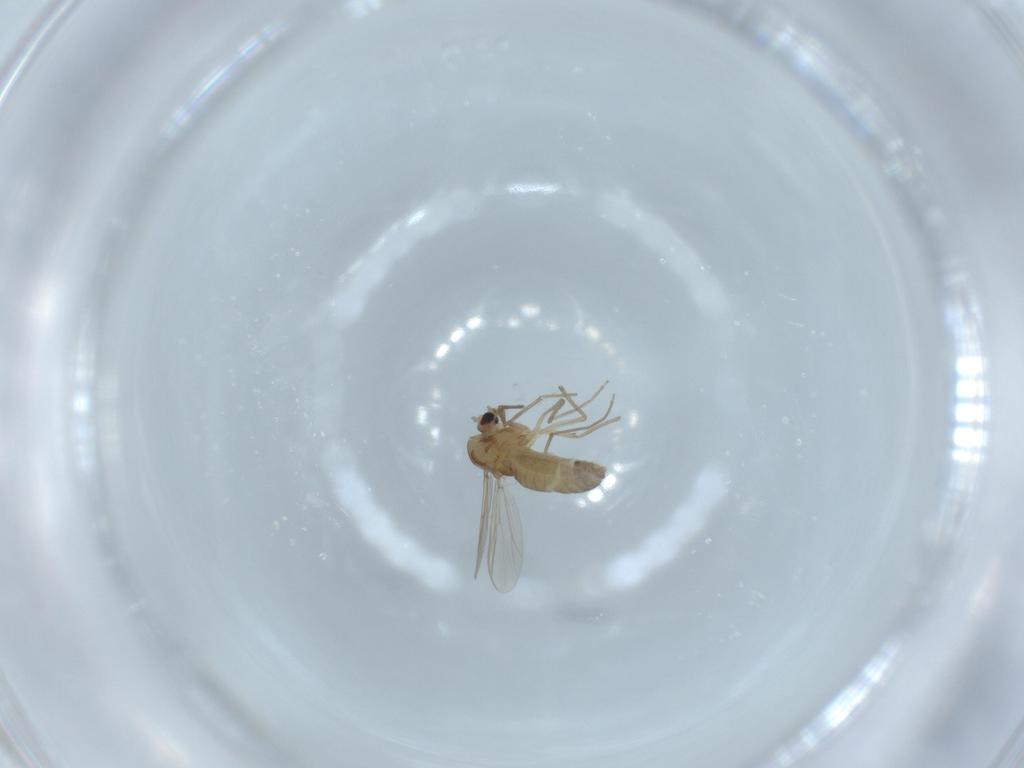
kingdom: Animalia
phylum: Arthropoda
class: Insecta
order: Diptera
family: Chironomidae
